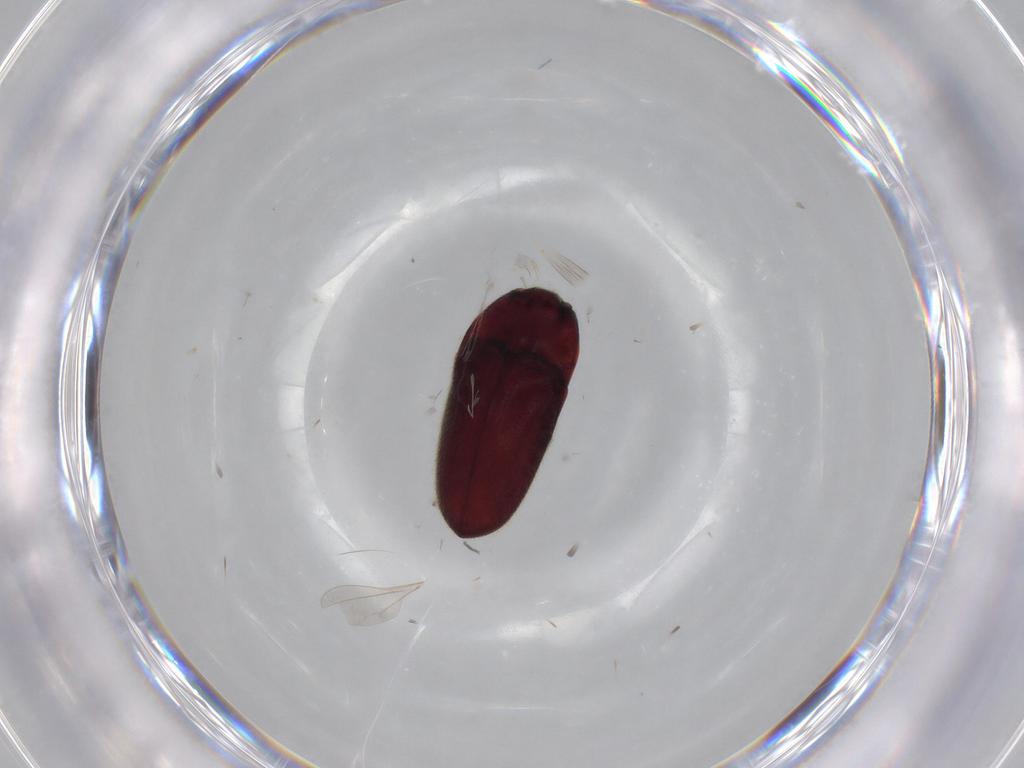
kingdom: Animalia
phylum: Arthropoda
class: Insecta
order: Coleoptera
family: Throscidae
